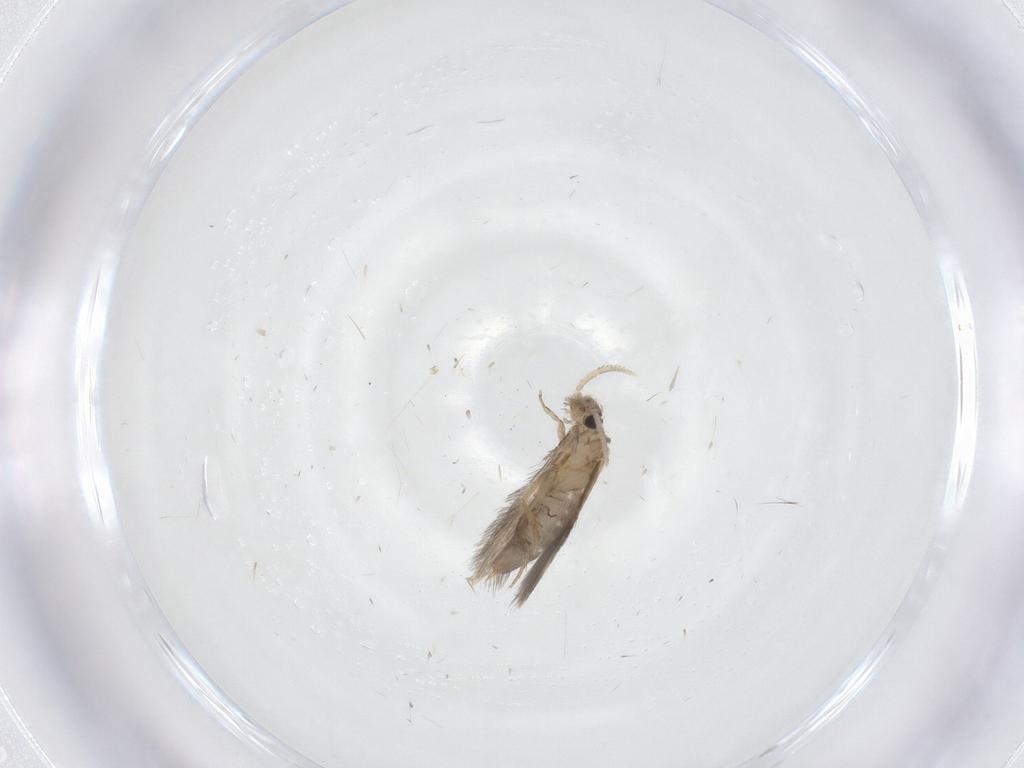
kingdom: Animalia
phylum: Arthropoda
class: Insecta
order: Trichoptera
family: Hydroptilidae
